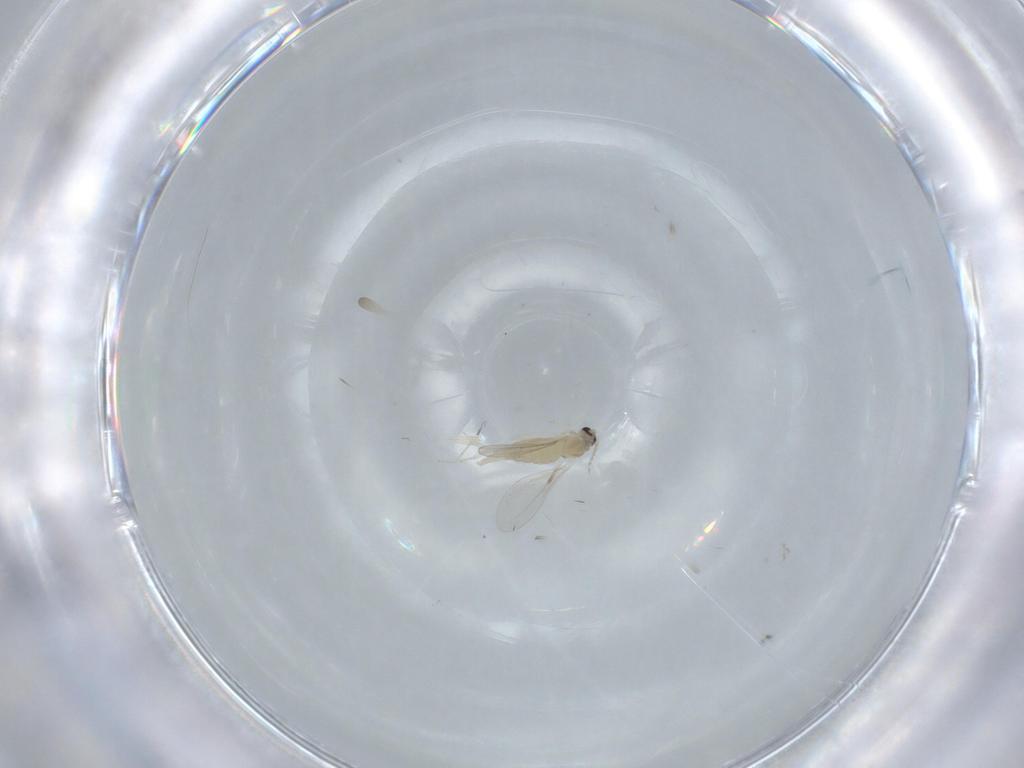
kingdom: Animalia
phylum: Arthropoda
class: Insecta
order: Diptera
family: Cecidomyiidae
